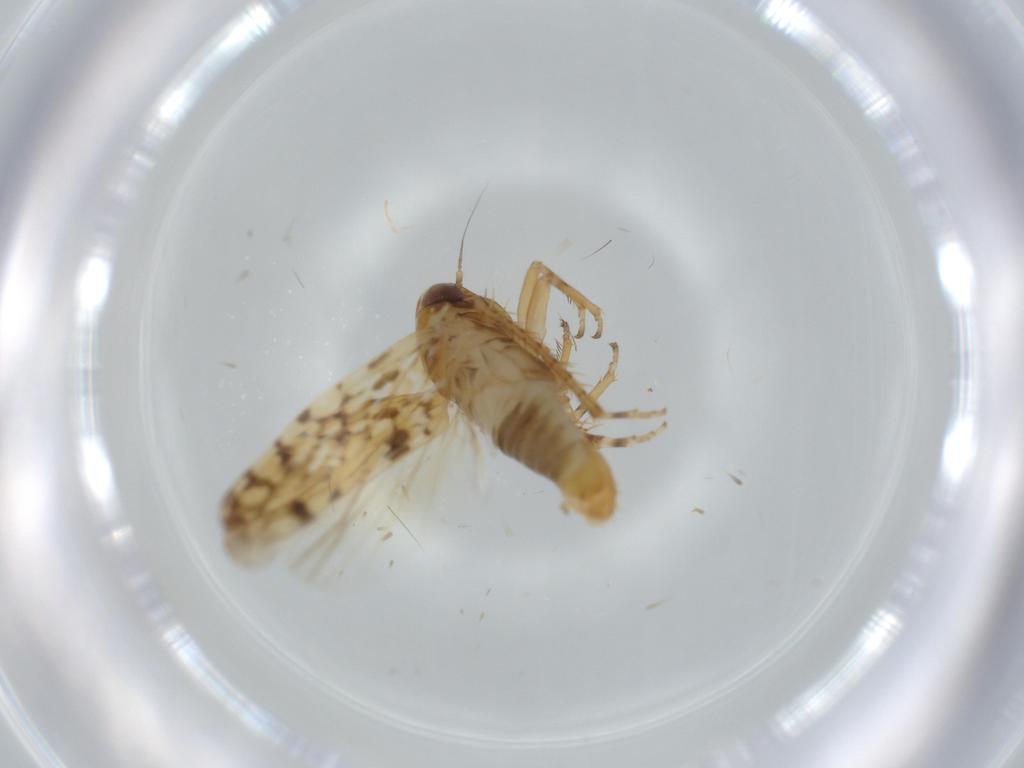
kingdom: Animalia
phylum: Arthropoda
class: Insecta
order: Hemiptera
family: Cicadellidae
